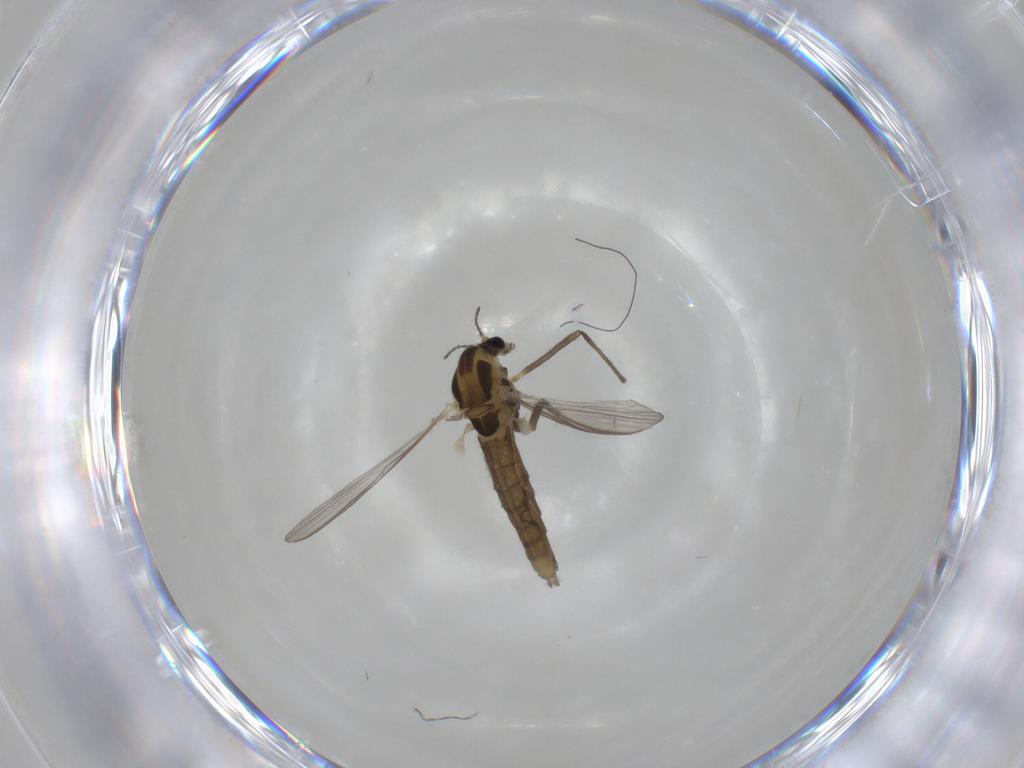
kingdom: Animalia
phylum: Arthropoda
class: Insecta
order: Diptera
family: Chironomidae
